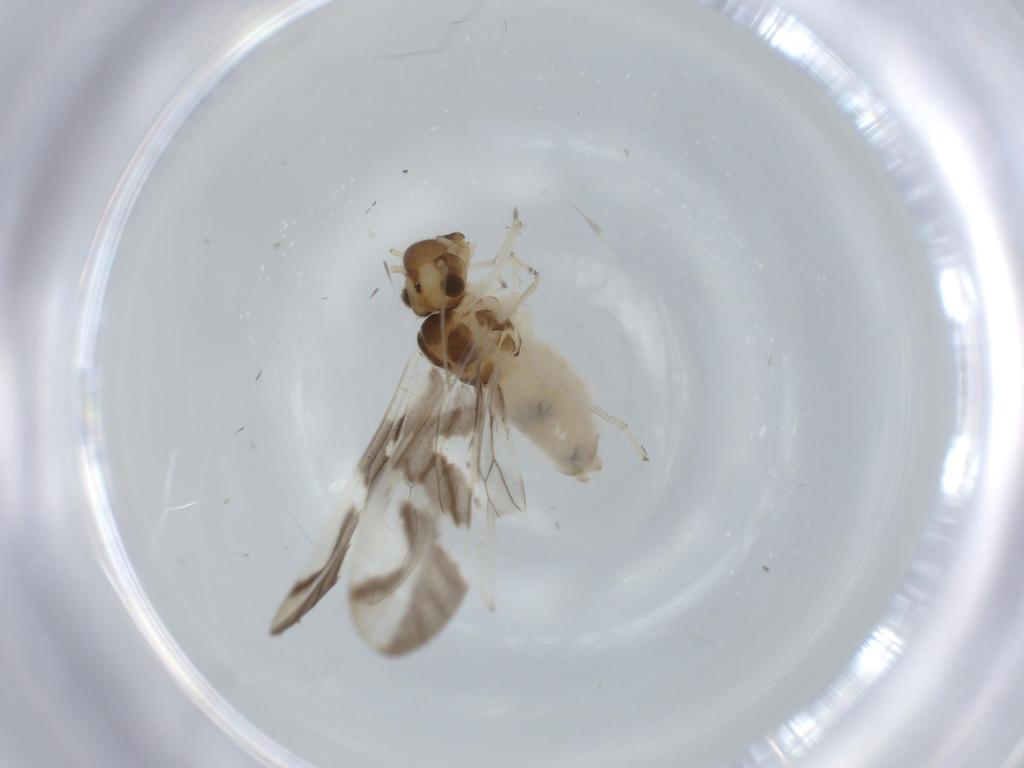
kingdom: Animalia
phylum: Arthropoda
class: Insecta
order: Psocodea
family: Caeciliusidae
